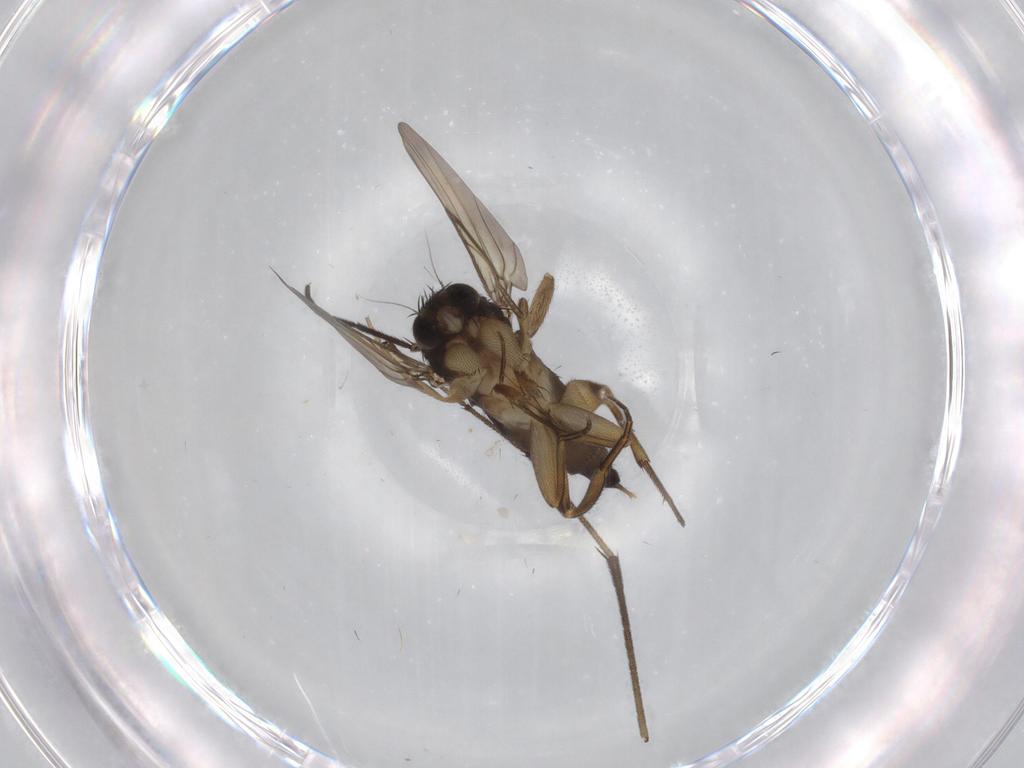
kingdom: Animalia
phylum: Arthropoda
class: Insecta
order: Diptera
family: Phoridae
